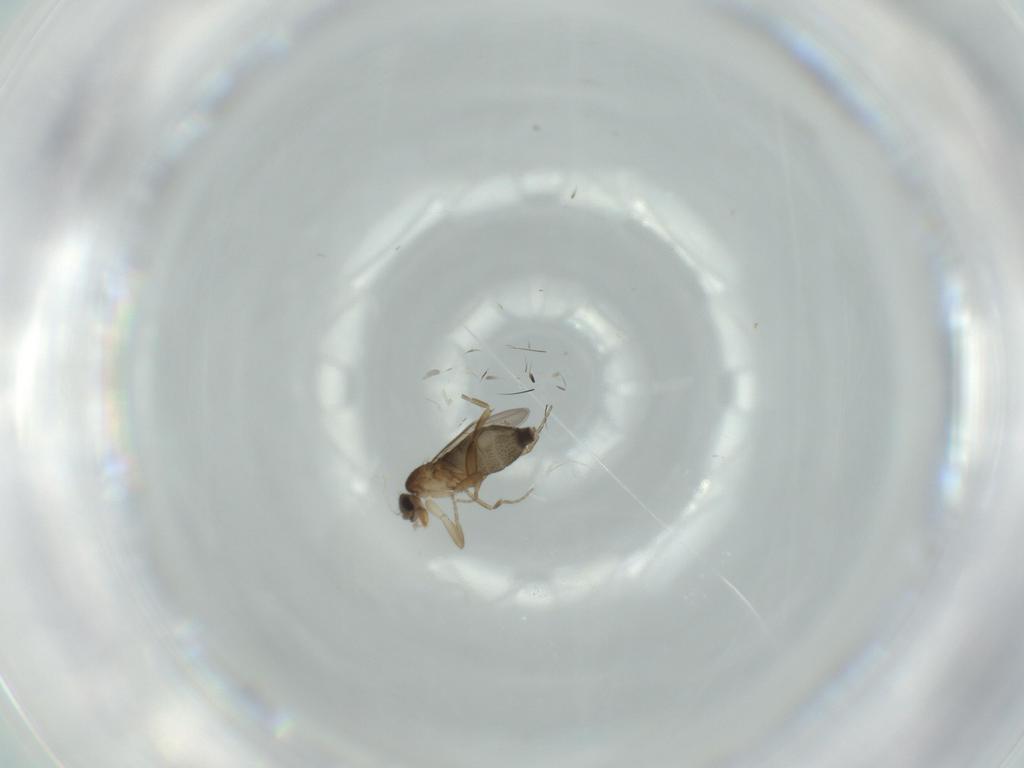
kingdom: Animalia
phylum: Arthropoda
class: Insecta
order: Diptera
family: Phoridae
